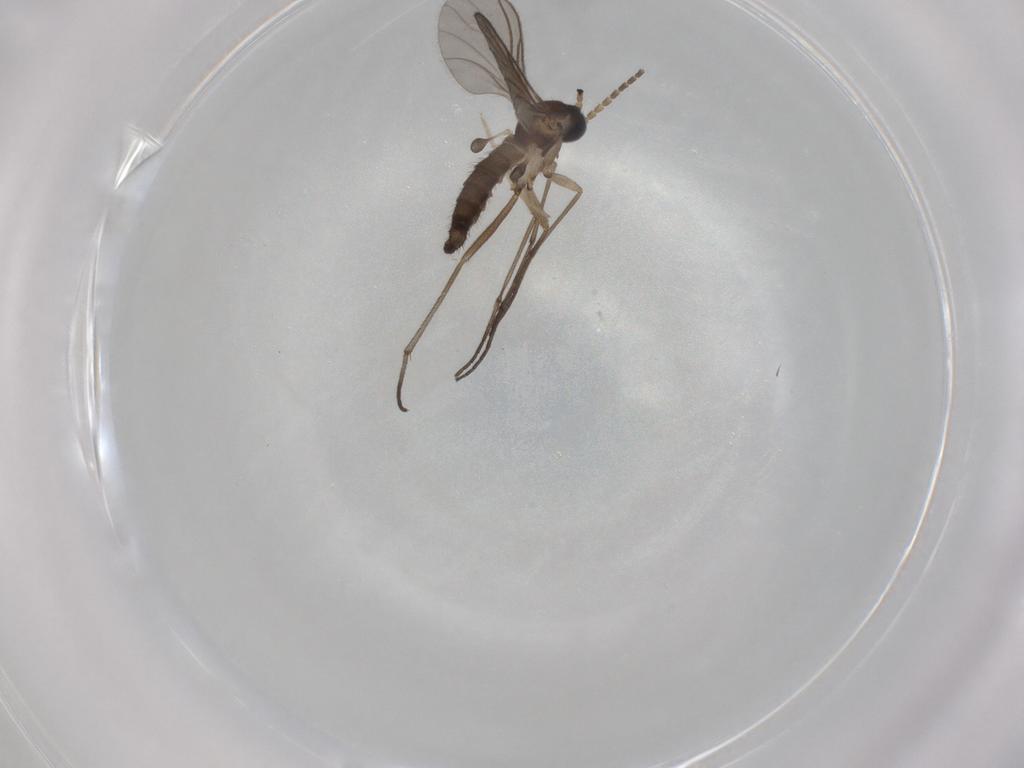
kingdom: Animalia
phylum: Arthropoda
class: Insecta
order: Diptera
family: Sciaridae
